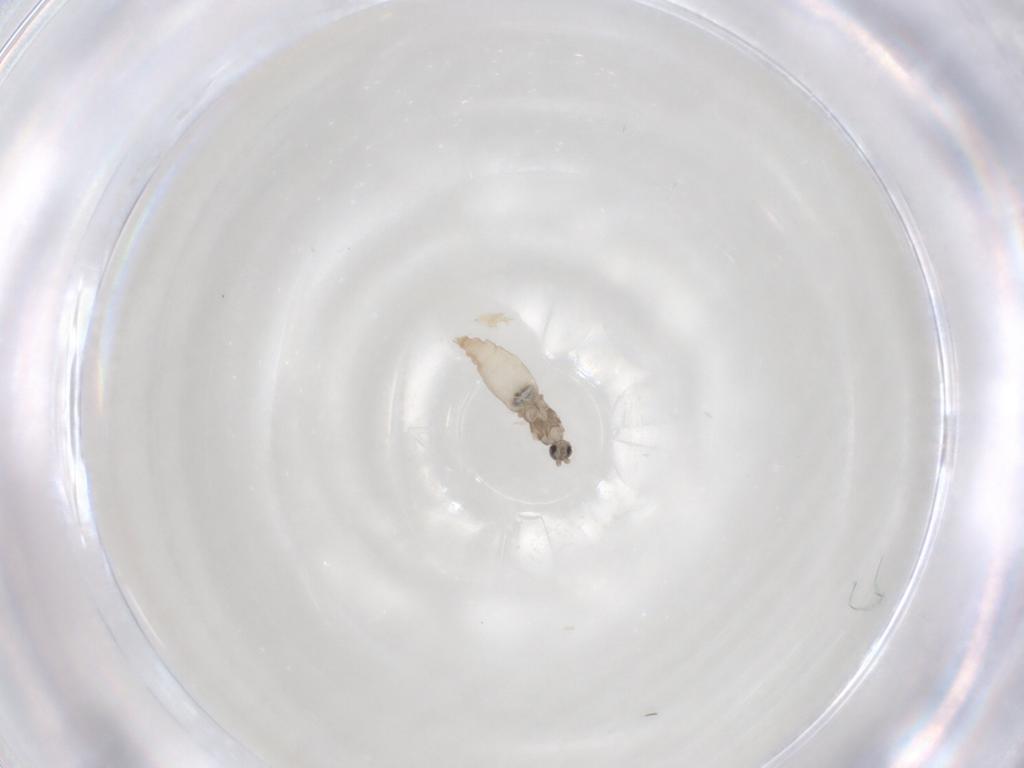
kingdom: Animalia
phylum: Arthropoda
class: Insecta
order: Diptera
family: Cecidomyiidae
